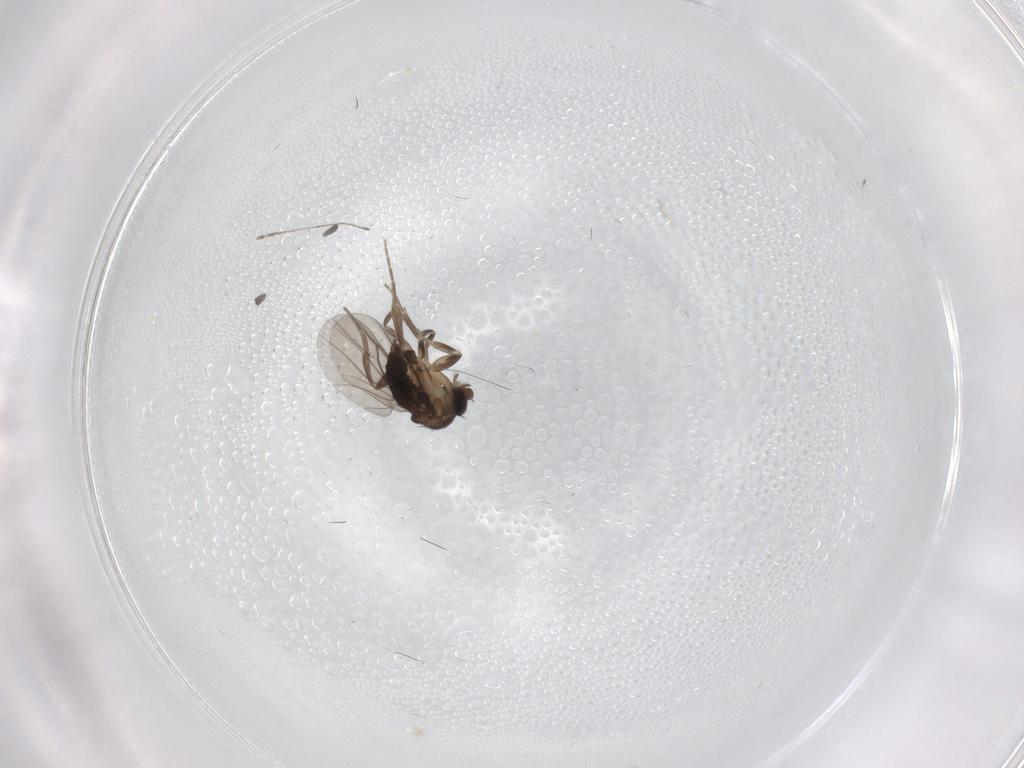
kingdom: Animalia
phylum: Arthropoda
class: Insecta
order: Diptera
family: Cecidomyiidae
